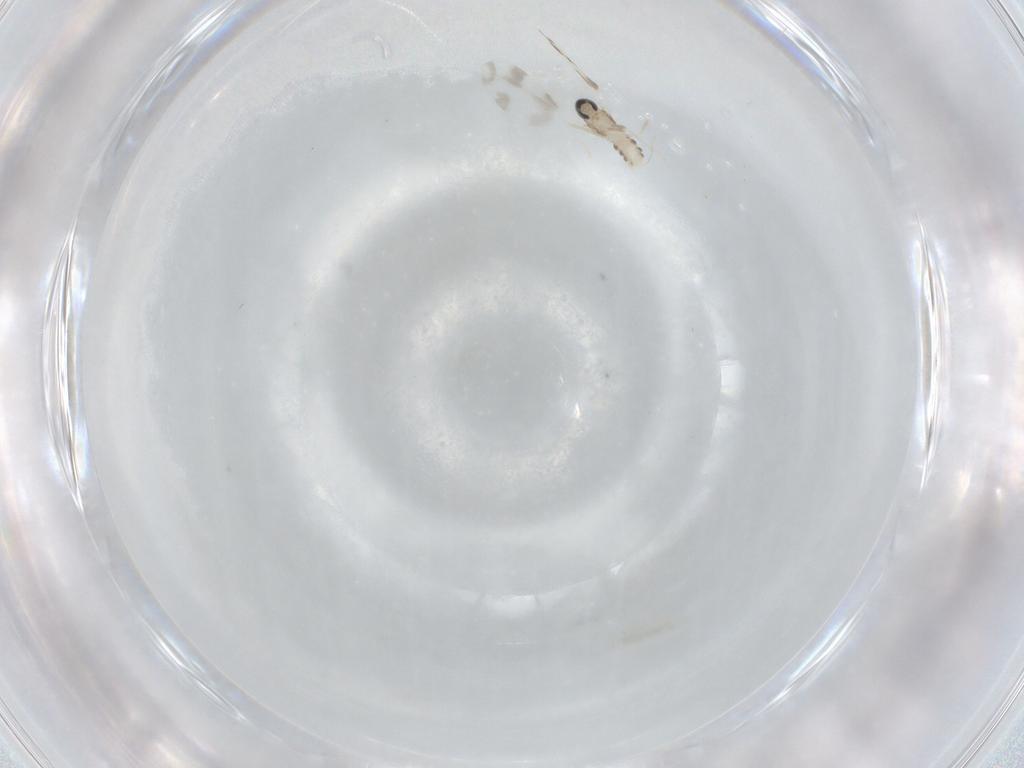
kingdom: Animalia
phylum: Arthropoda
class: Insecta
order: Diptera
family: Cecidomyiidae
